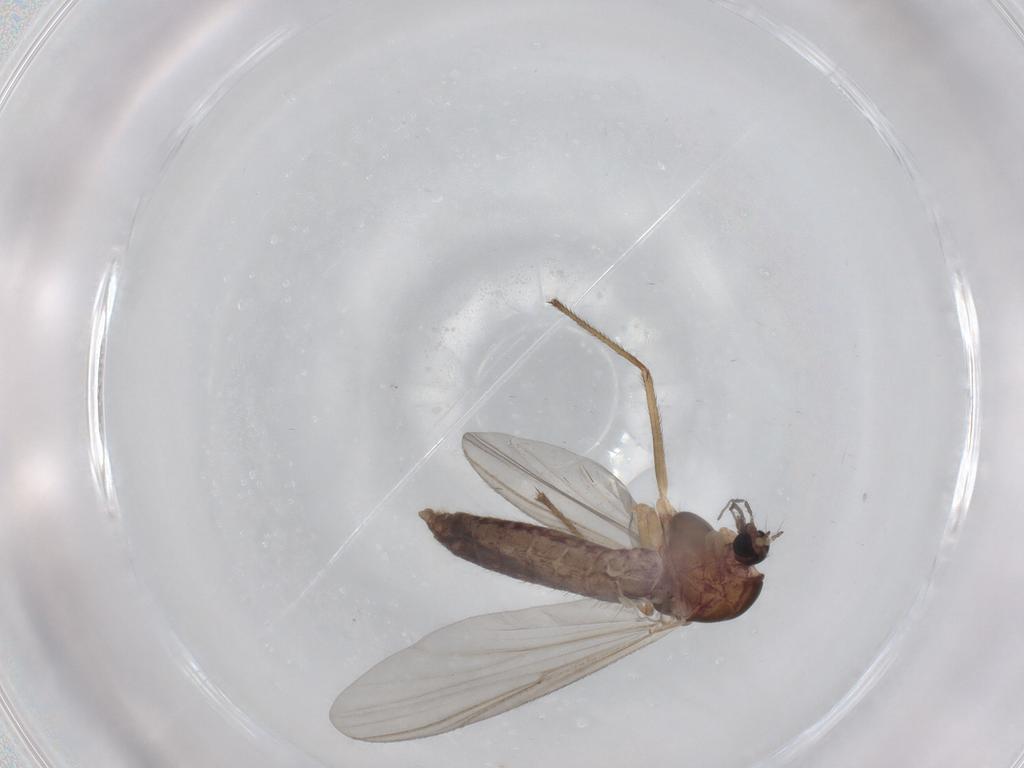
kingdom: Animalia
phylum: Arthropoda
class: Insecta
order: Diptera
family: Chironomidae
